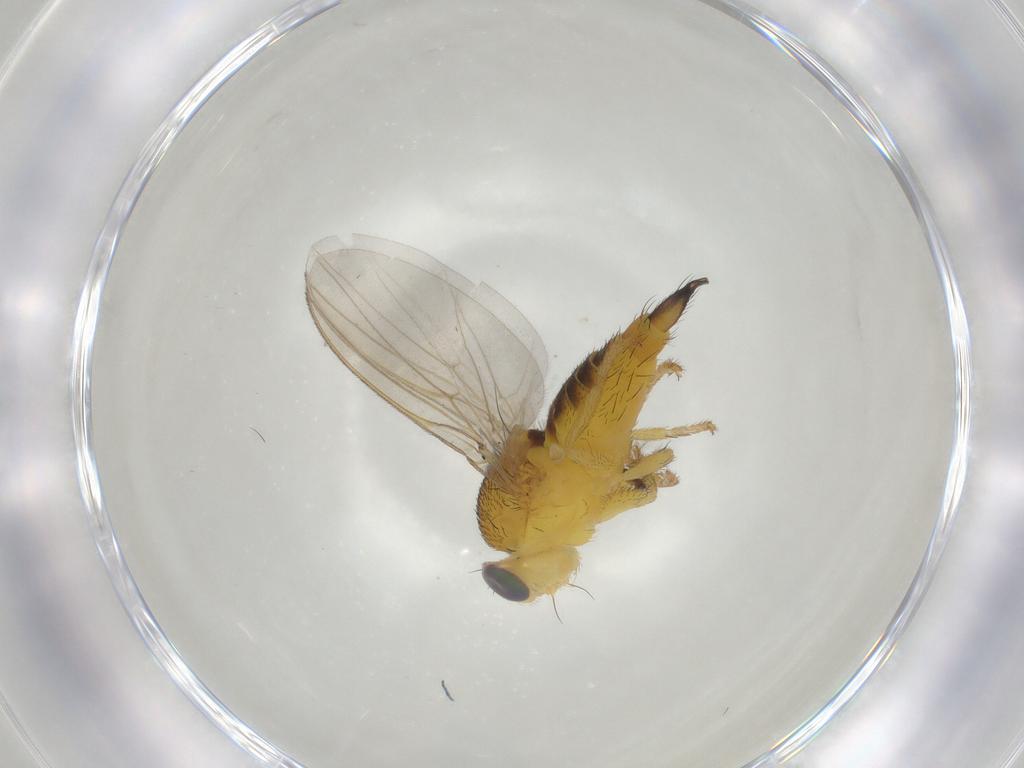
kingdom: Animalia
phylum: Arthropoda
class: Insecta
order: Diptera
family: Fergusoninidae
